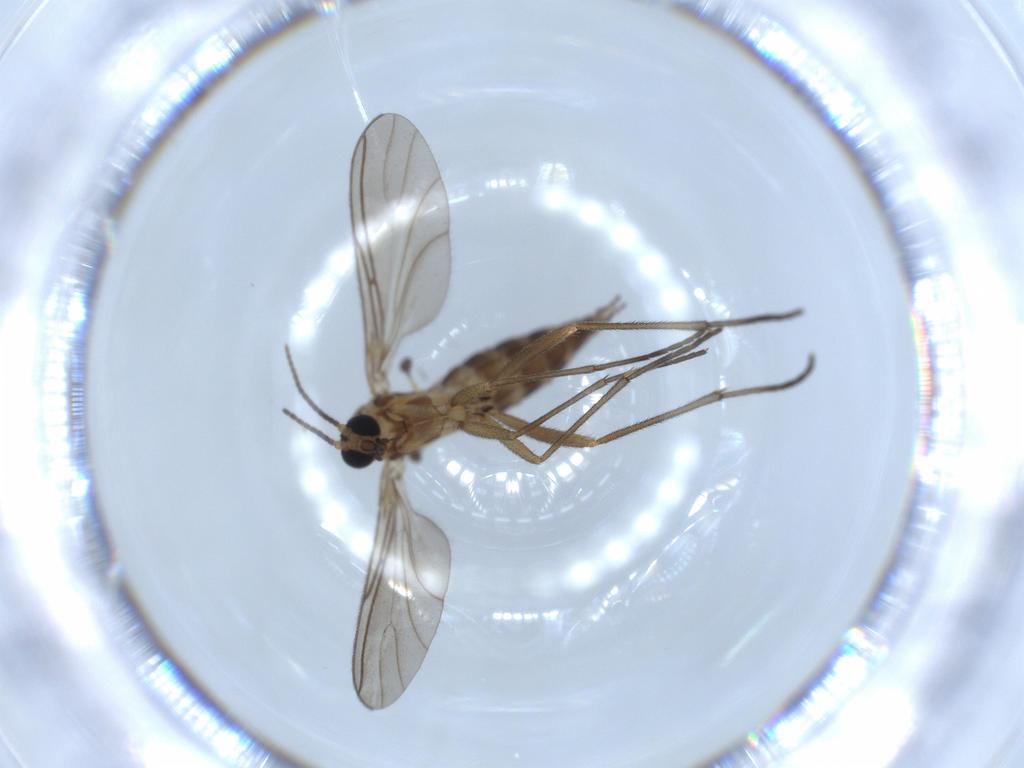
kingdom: Animalia
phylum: Arthropoda
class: Insecta
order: Diptera
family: Sciaridae
